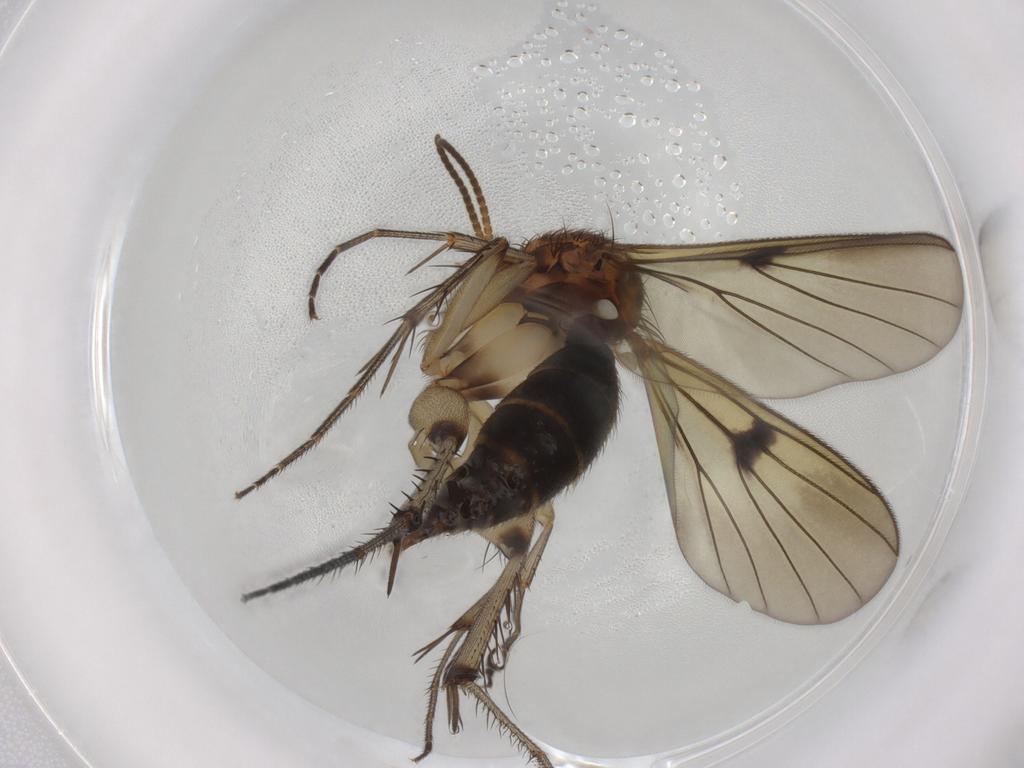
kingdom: Animalia
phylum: Arthropoda
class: Insecta
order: Diptera
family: Mycetophilidae
